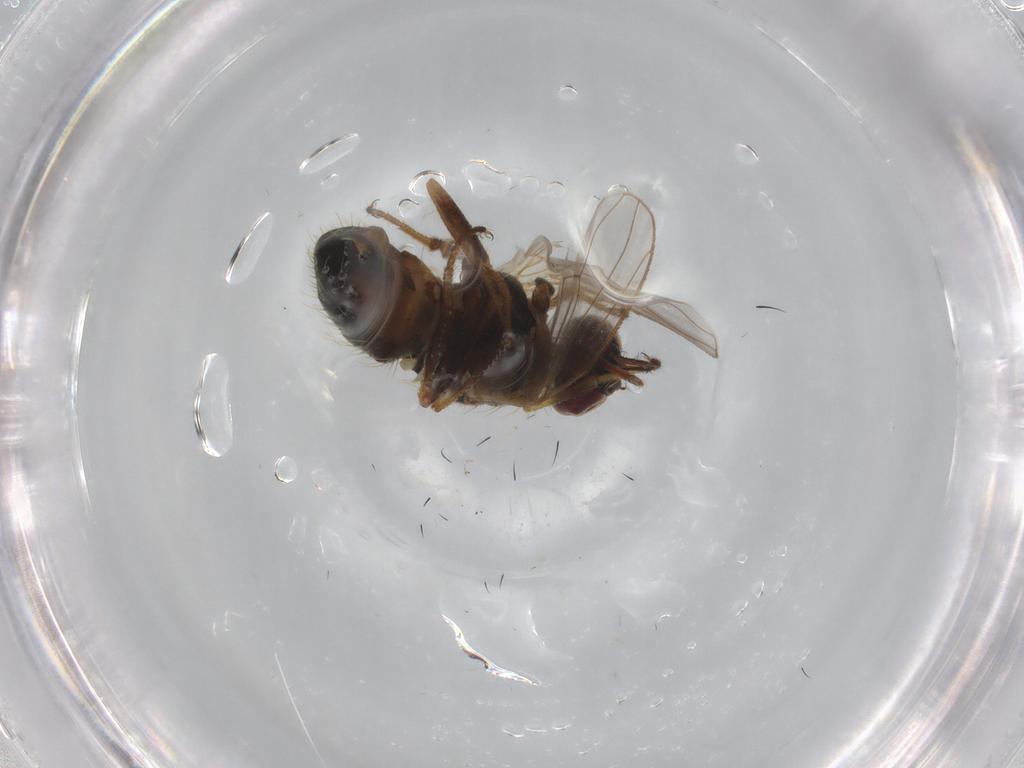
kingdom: Animalia
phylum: Arthropoda
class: Insecta
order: Diptera
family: Muscidae
